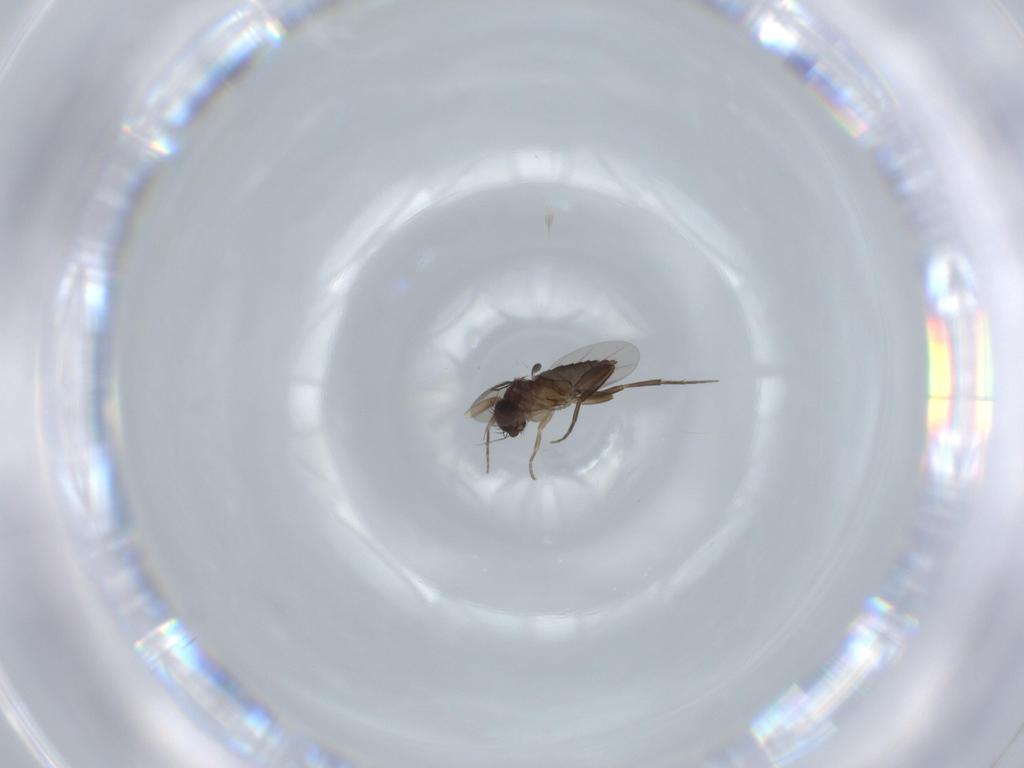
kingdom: Animalia
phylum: Arthropoda
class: Insecta
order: Diptera
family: Phoridae
